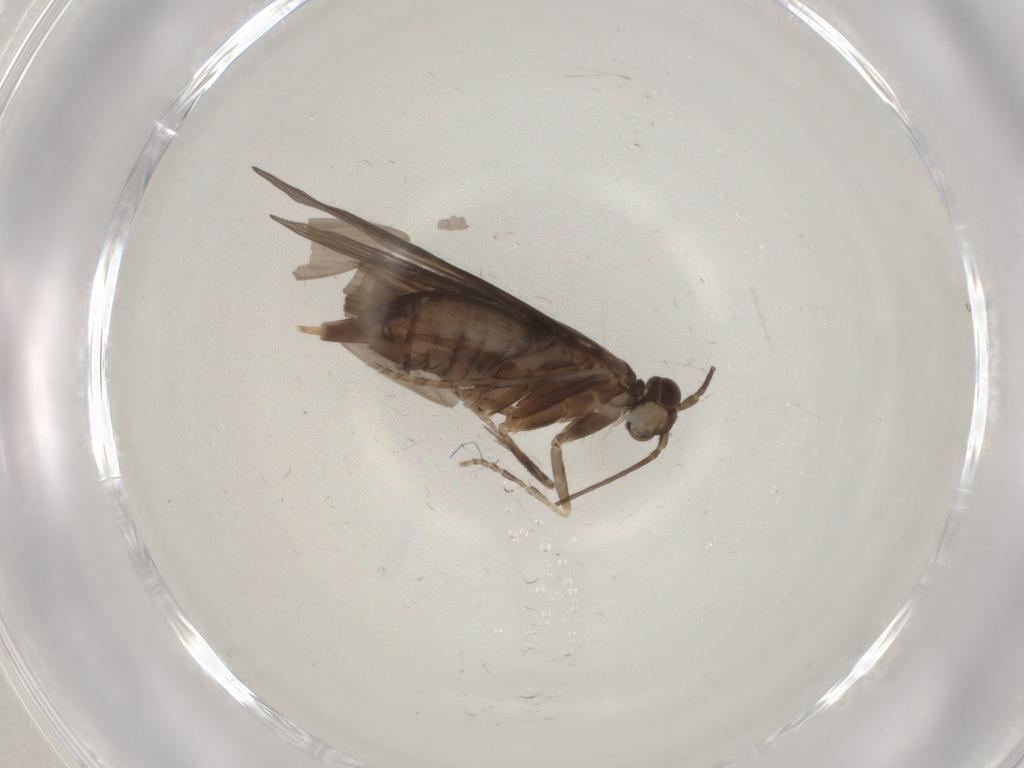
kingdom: Animalia
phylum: Arthropoda
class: Insecta
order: Trichoptera
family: Xiphocentronidae
